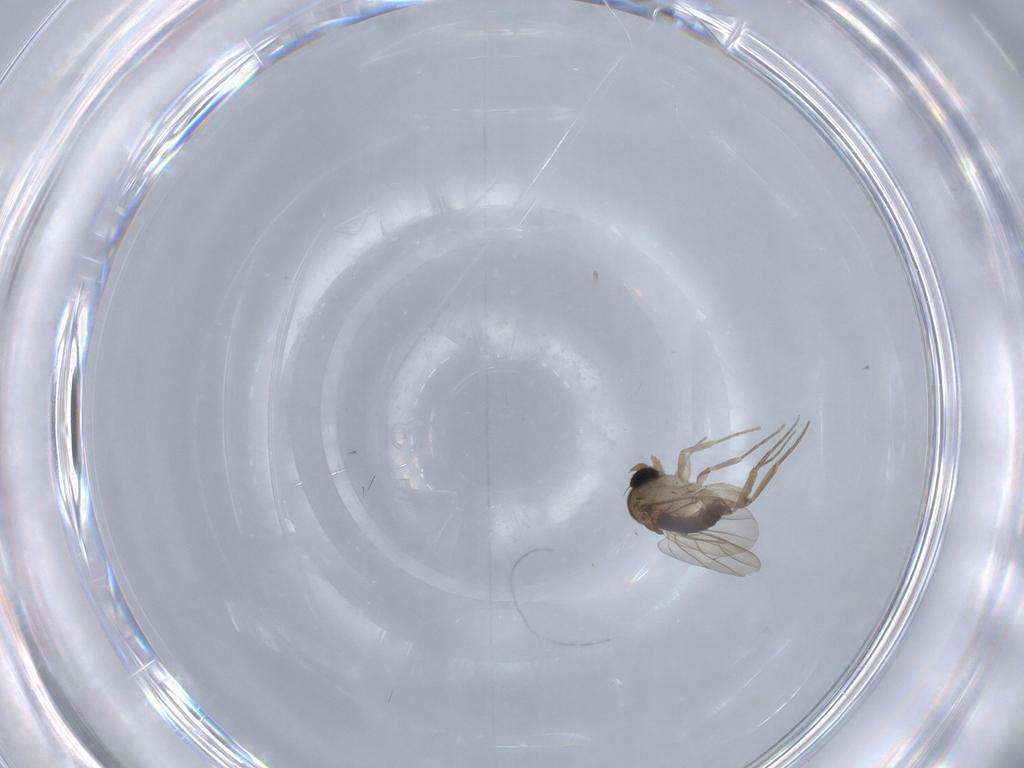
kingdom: Animalia
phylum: Arthropoda
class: Insecta
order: Diptera
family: Phoridae
